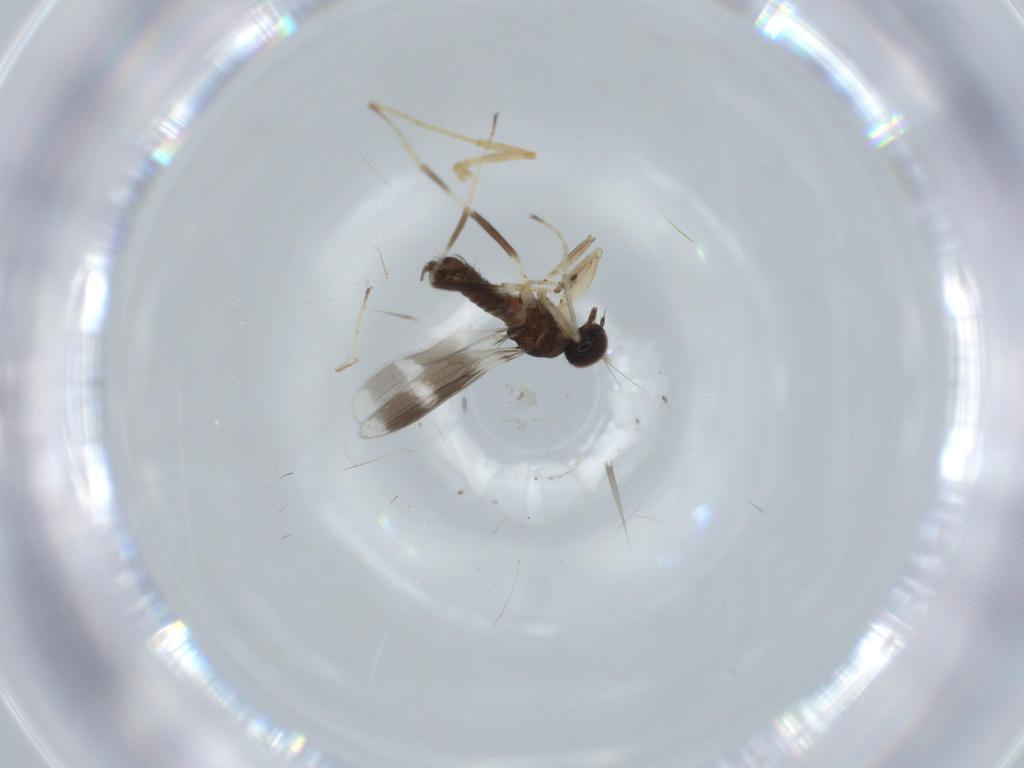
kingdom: Animalia
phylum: Arthropoda
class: Insecta
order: Diptera
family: Hybotidae
